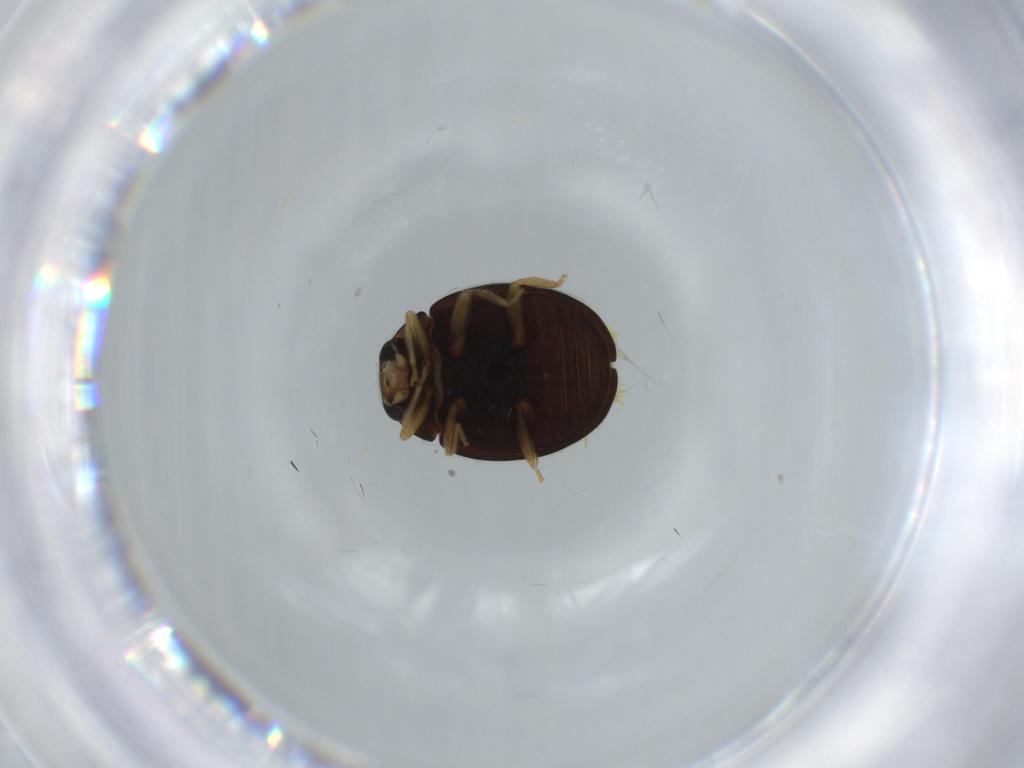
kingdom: Animalia
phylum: Arthropoda
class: Insecta
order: Coleoptera
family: Coccinellidae
